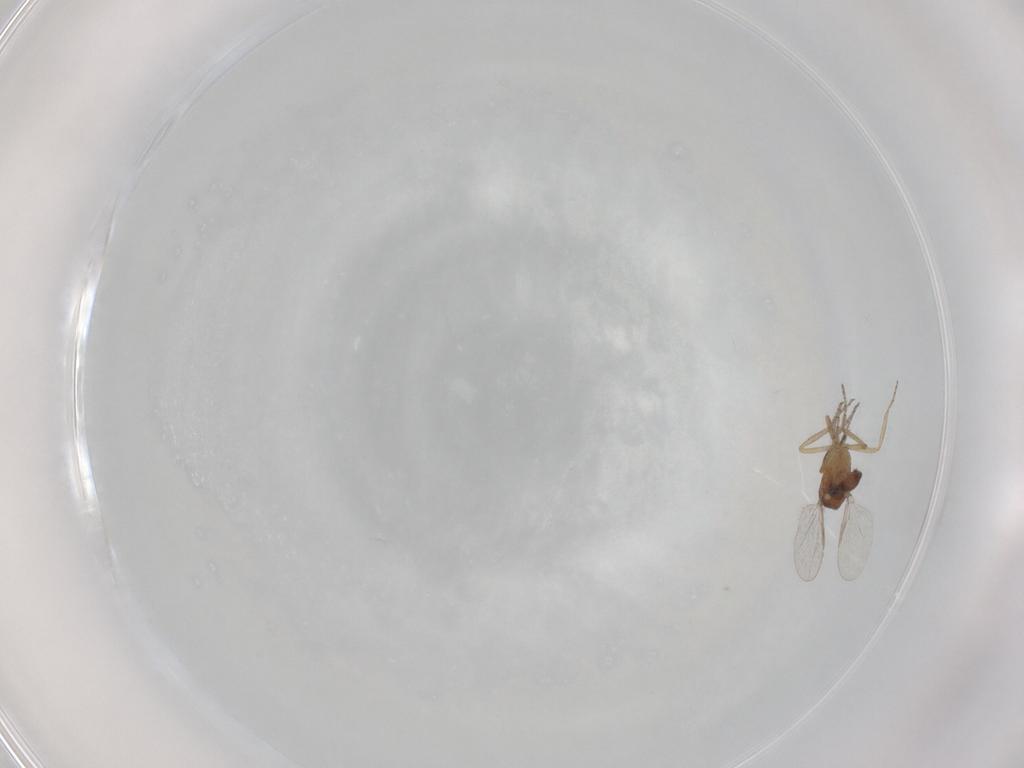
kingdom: Animalia
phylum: Arthropoda
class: Insecta
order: Diptera
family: Ceratopogonidae
